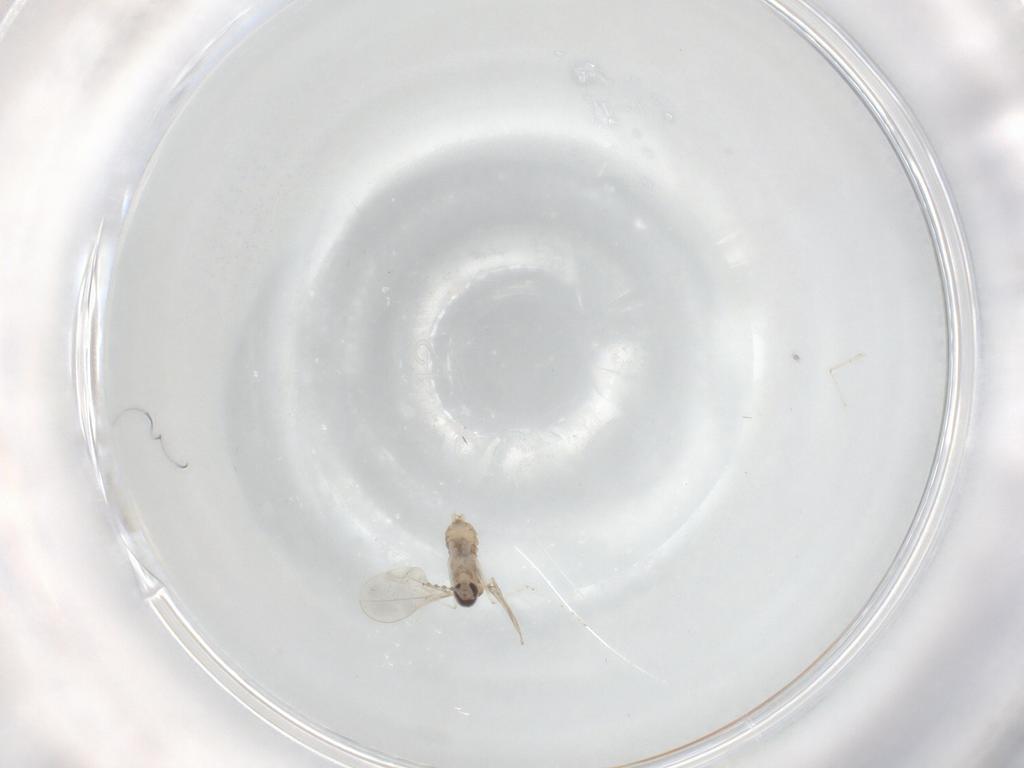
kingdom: Animalia
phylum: Arthropoda
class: Insecta
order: Diptera
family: Cecidomyiidae
